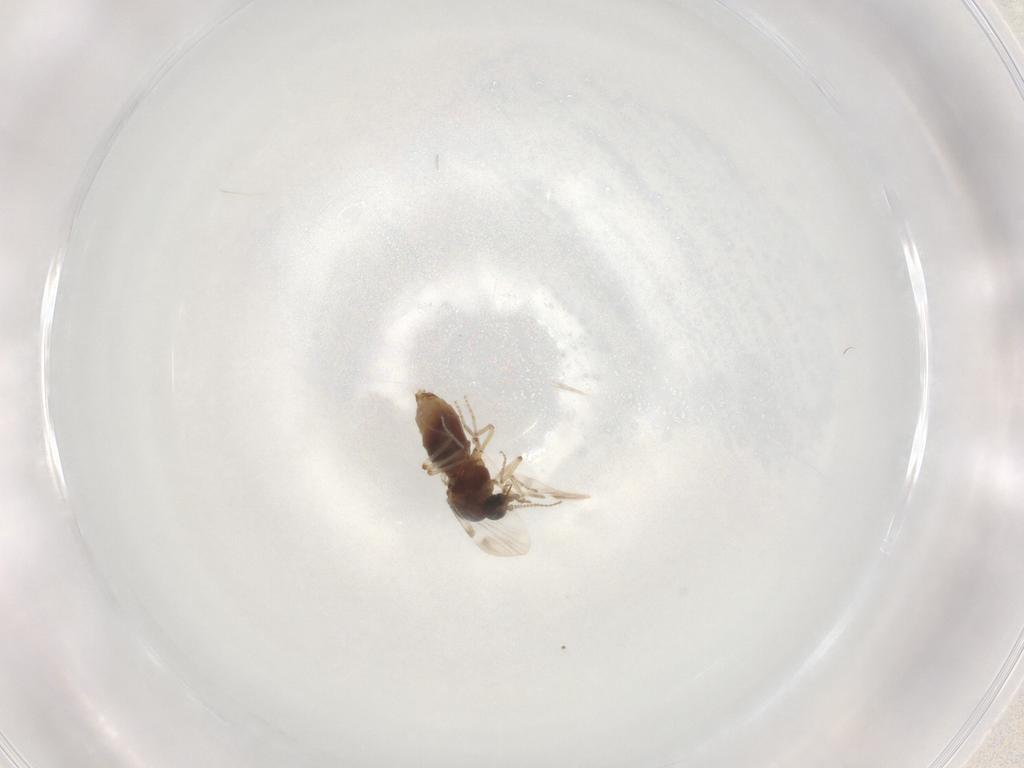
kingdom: Animalia
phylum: Arthropoda
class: Insecta
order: Diptera
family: Ceratopogonidae
